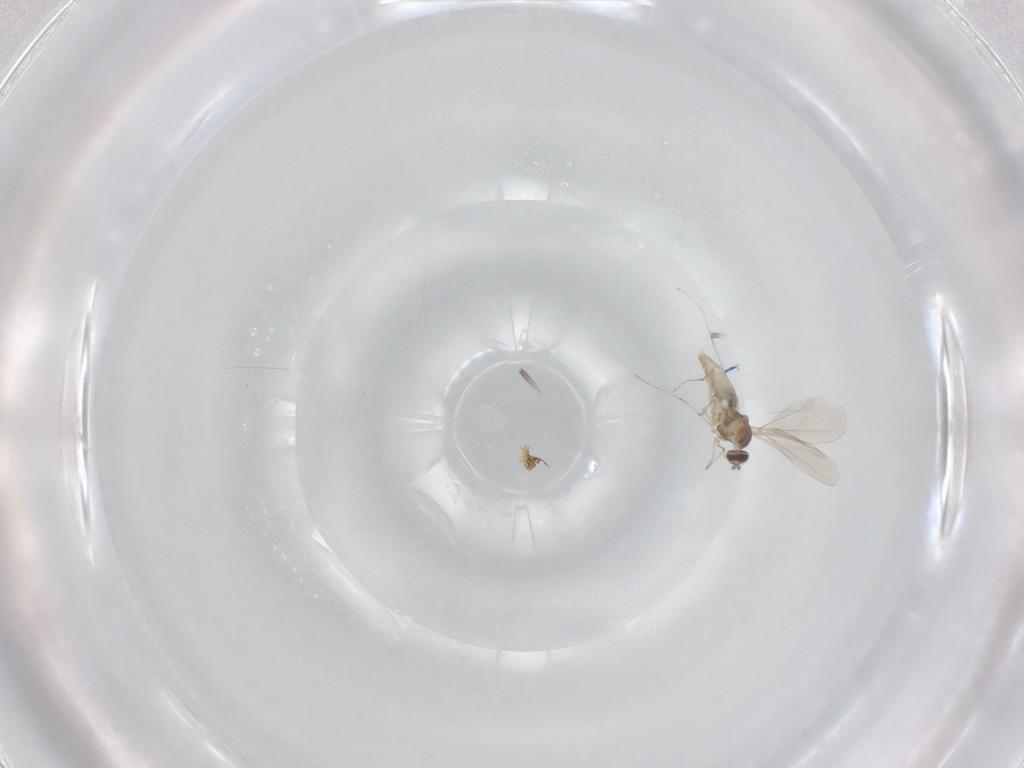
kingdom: Animalia
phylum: Arthropoda
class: Insecta
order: Diptera
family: Cecidomyiidae
